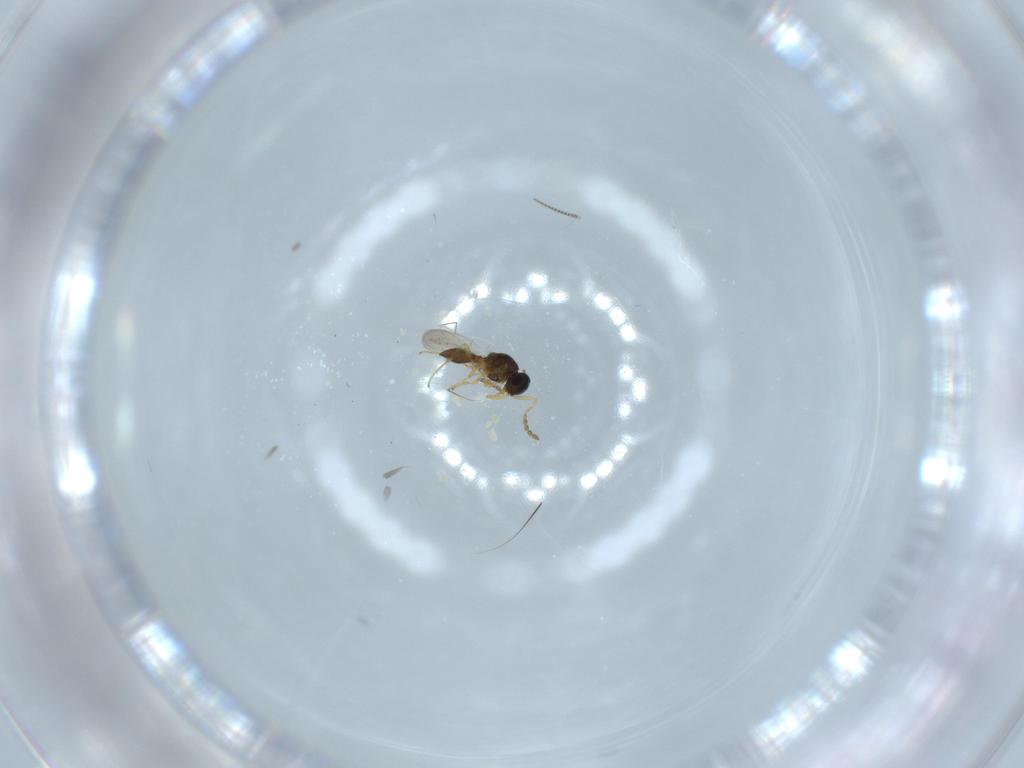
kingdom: Animalia
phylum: Arthropoda
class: Insecta
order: Hymenoptera
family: Platygastridae
